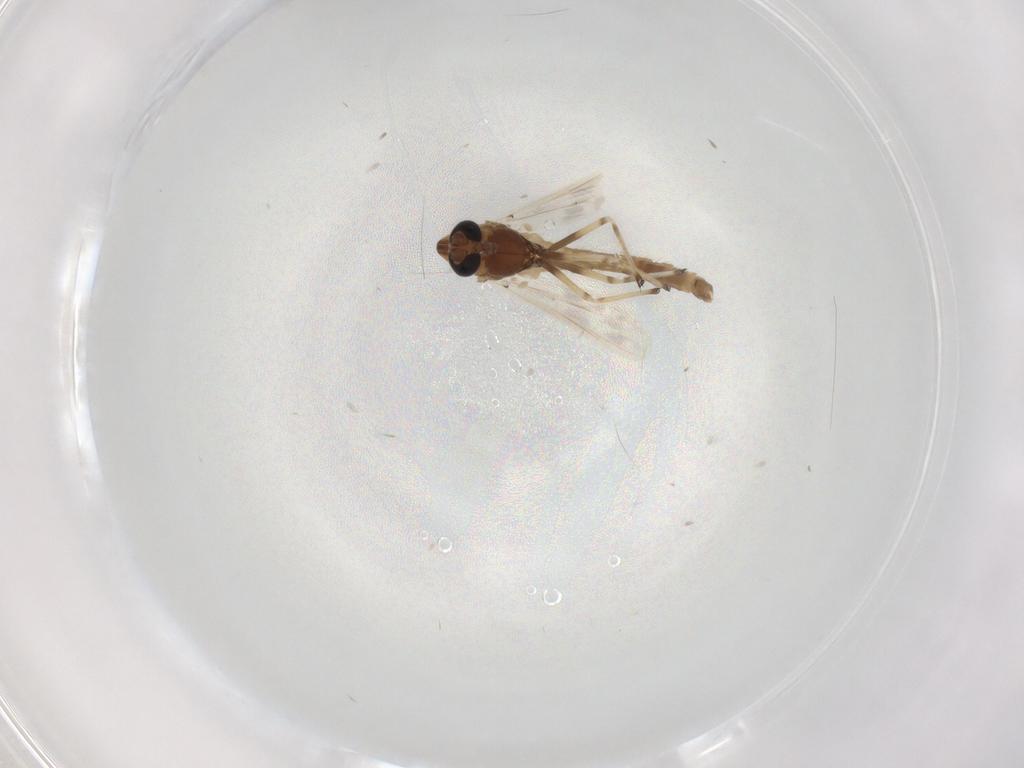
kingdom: Animalia
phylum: Arthropoda
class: Insecta
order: Diptera
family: Chironomidae
